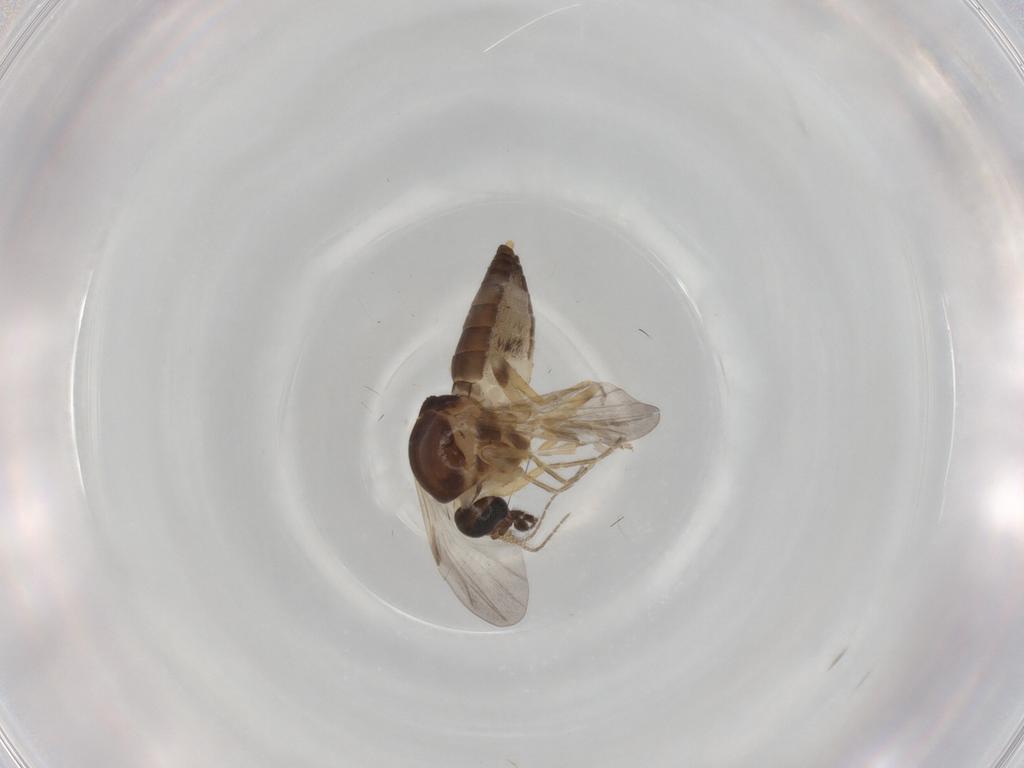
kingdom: Animalia
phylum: Arthropoda
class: Insecta
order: Diptera
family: Ceratopogonidae
